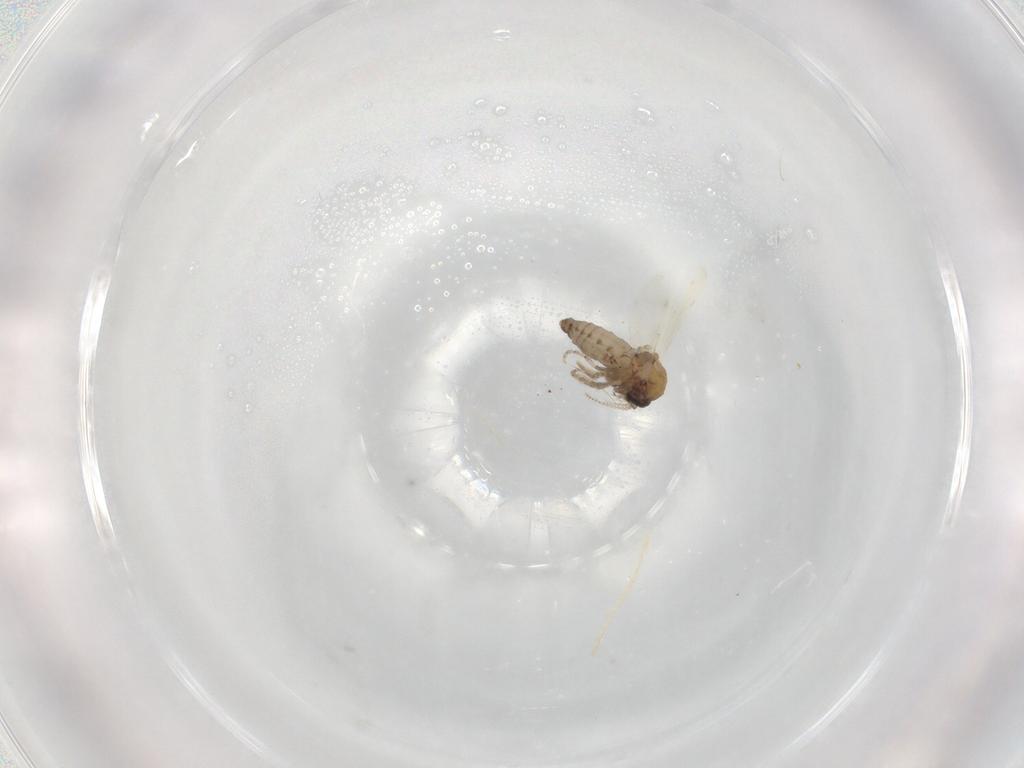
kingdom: Animalia
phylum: Arthropoda
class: Insecta
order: Diptera
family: Ceratopogonidae
